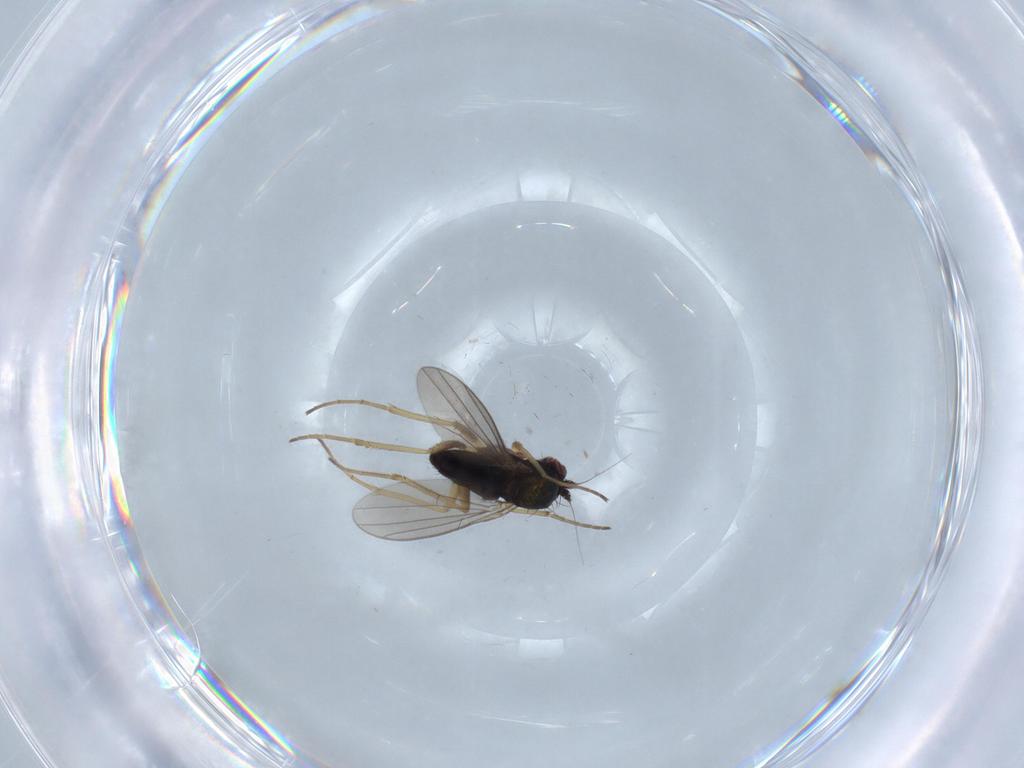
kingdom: Animalia
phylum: Arthropoda
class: Insecta
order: Diptera
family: Dolichopodidae
